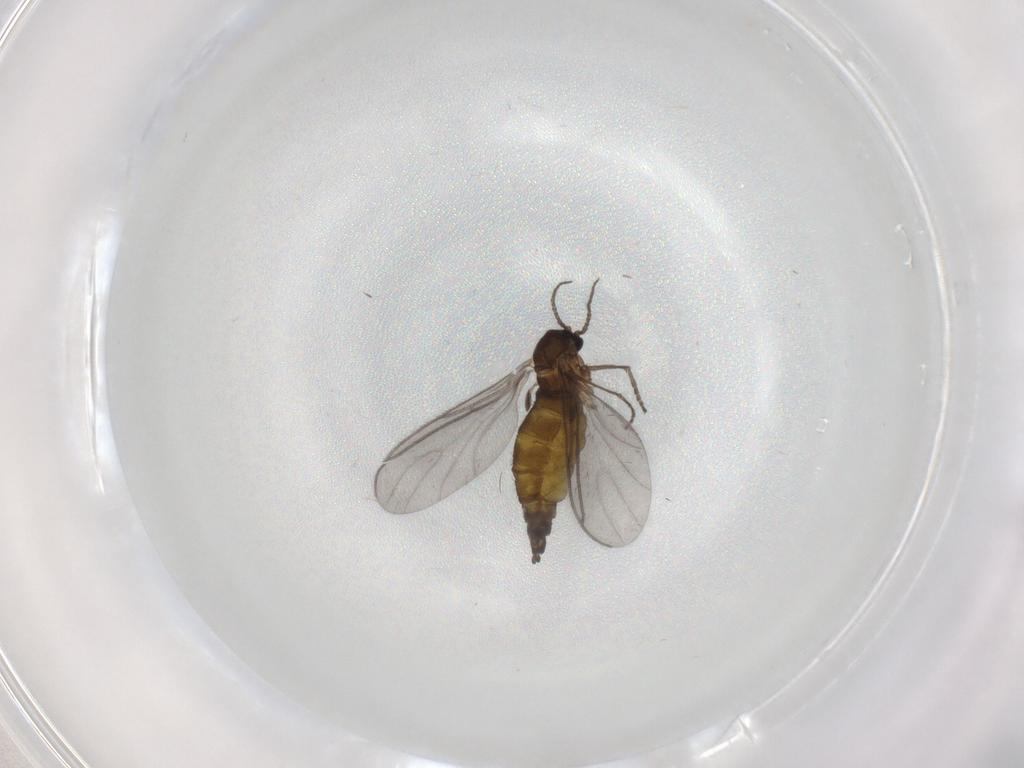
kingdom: Animalia
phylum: Arthropoda
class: Insecta
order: Diptera
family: Sciaridae
